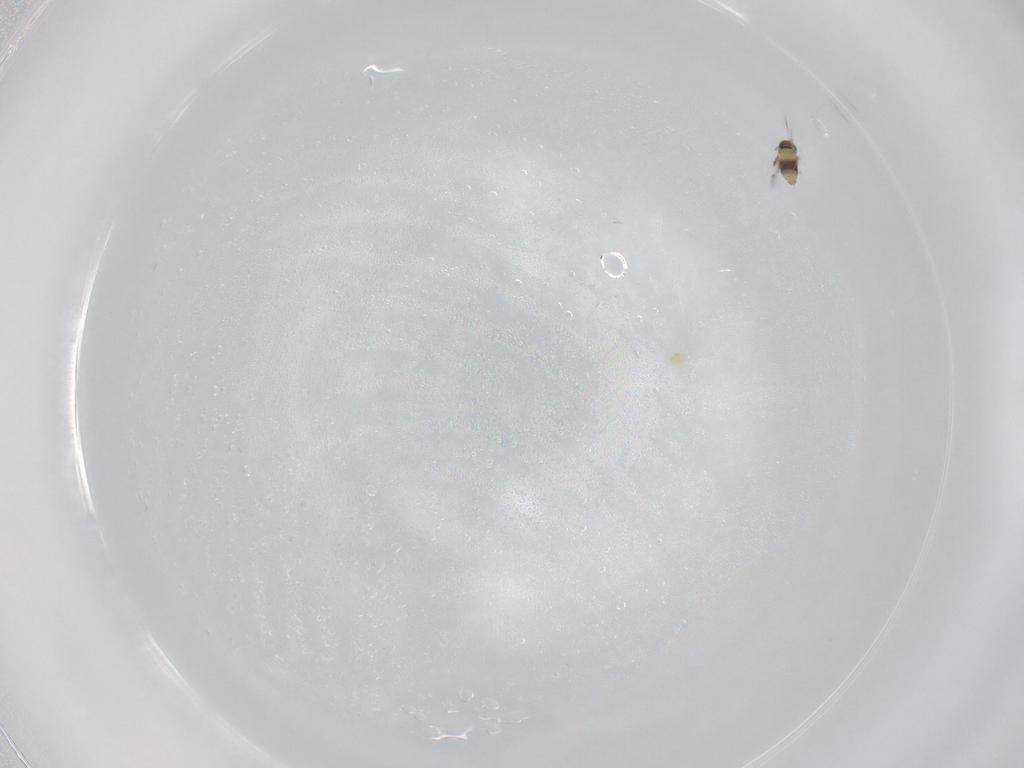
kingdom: Animalia
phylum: Arthropoda
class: Insecta
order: Hymenoptera
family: Signiphoridae
